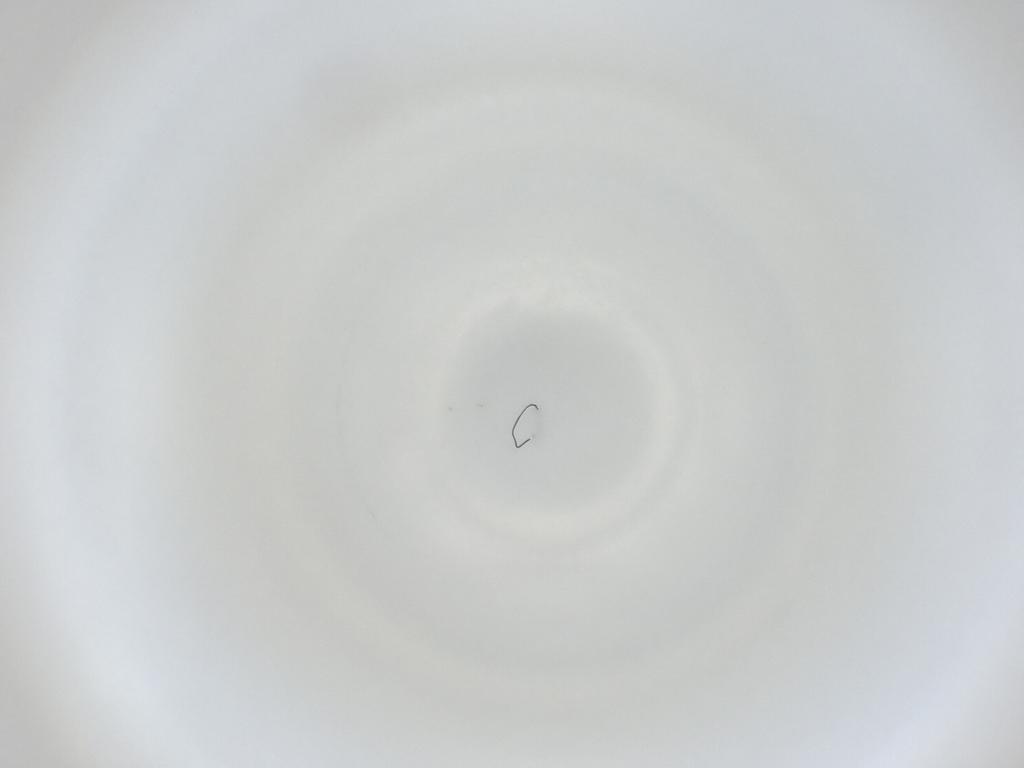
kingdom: Animalia
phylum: Arthropoda
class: Insecta
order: Diptera
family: Cecidomyiidae
